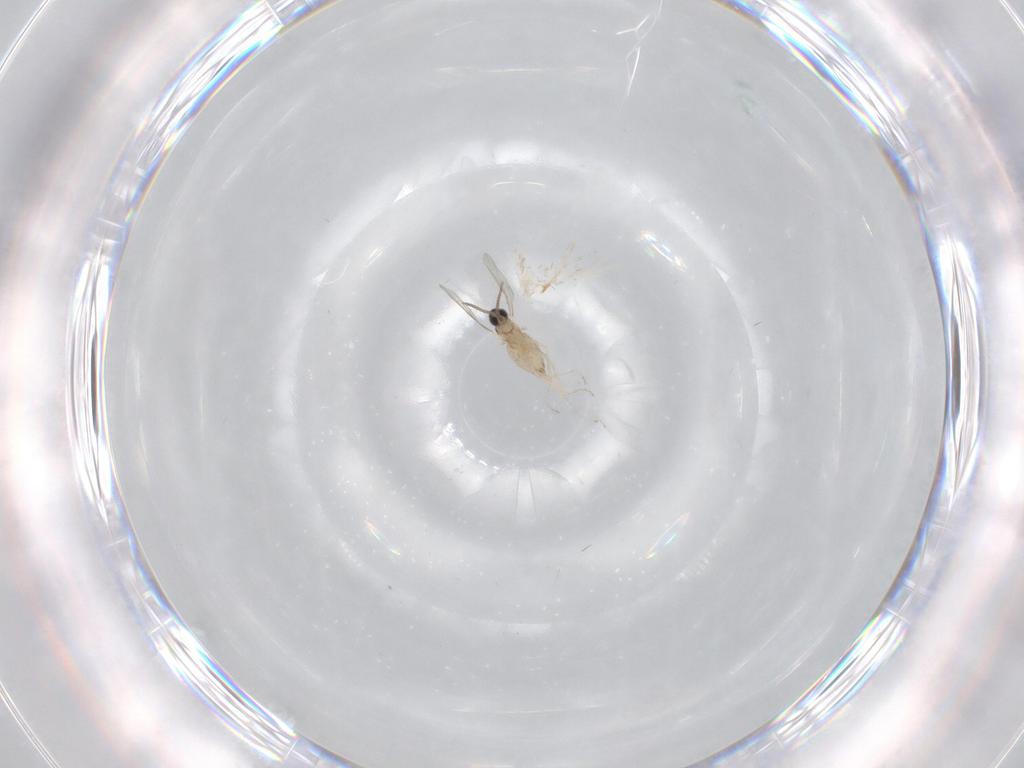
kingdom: Animalia
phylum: Arthropoda
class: Insecta
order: Diptera
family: Cecidomyiidae
